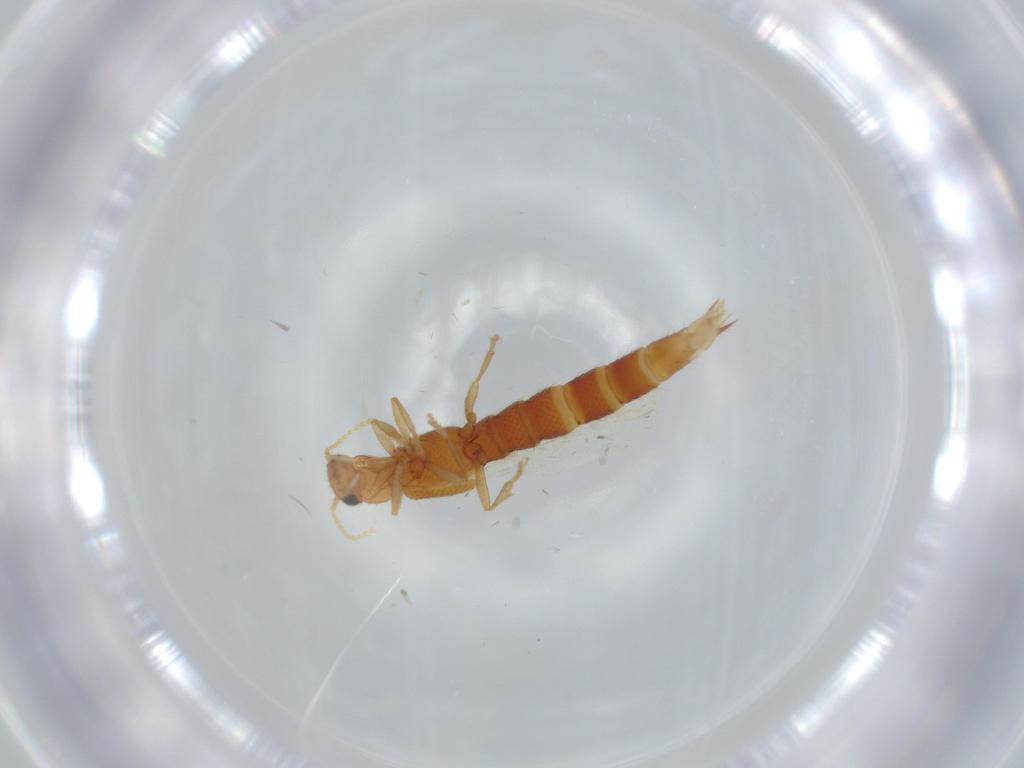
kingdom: Animalia
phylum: Arthropoda
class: Insecta
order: Coleoptera
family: Staphylinidae
